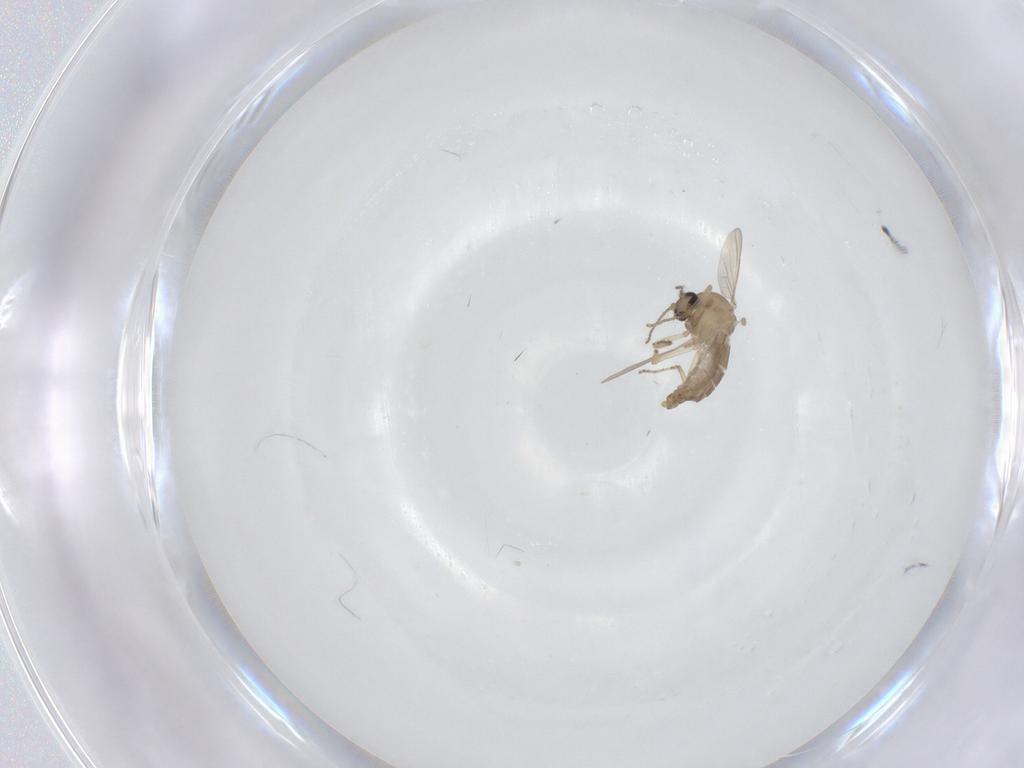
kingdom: Animalia
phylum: Arthropoda
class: Insecta
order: Diptera
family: Ceratopogonidae
